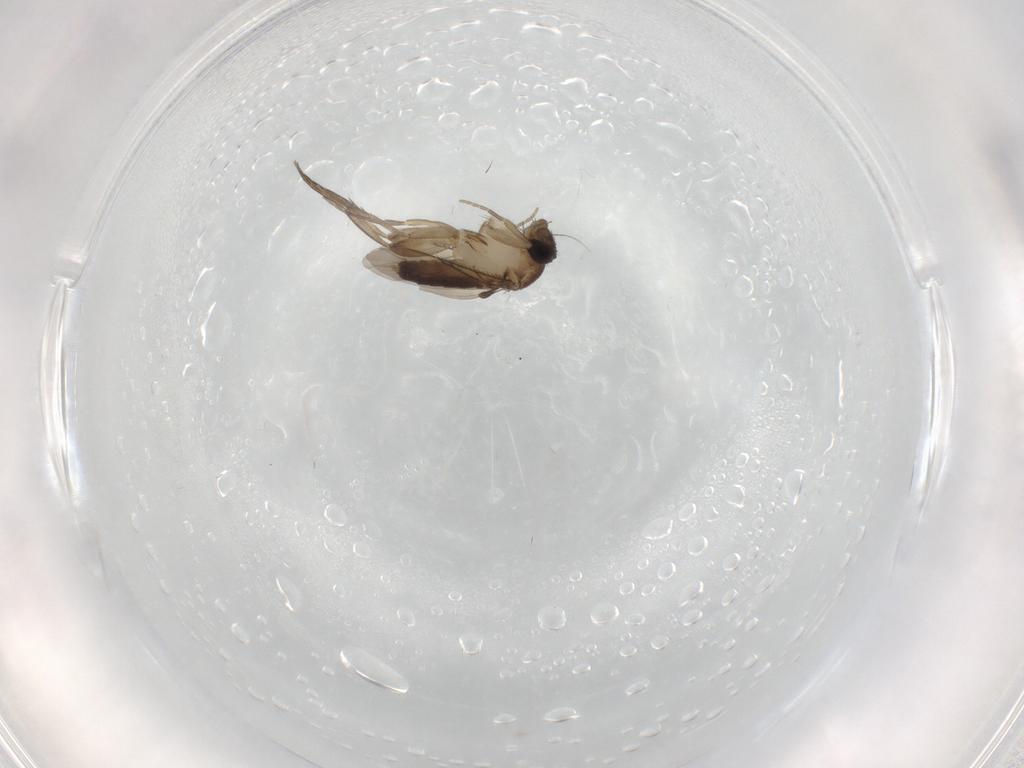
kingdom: Animalia
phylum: Arthropoda
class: Insecta
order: Diptera
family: Phoridae
